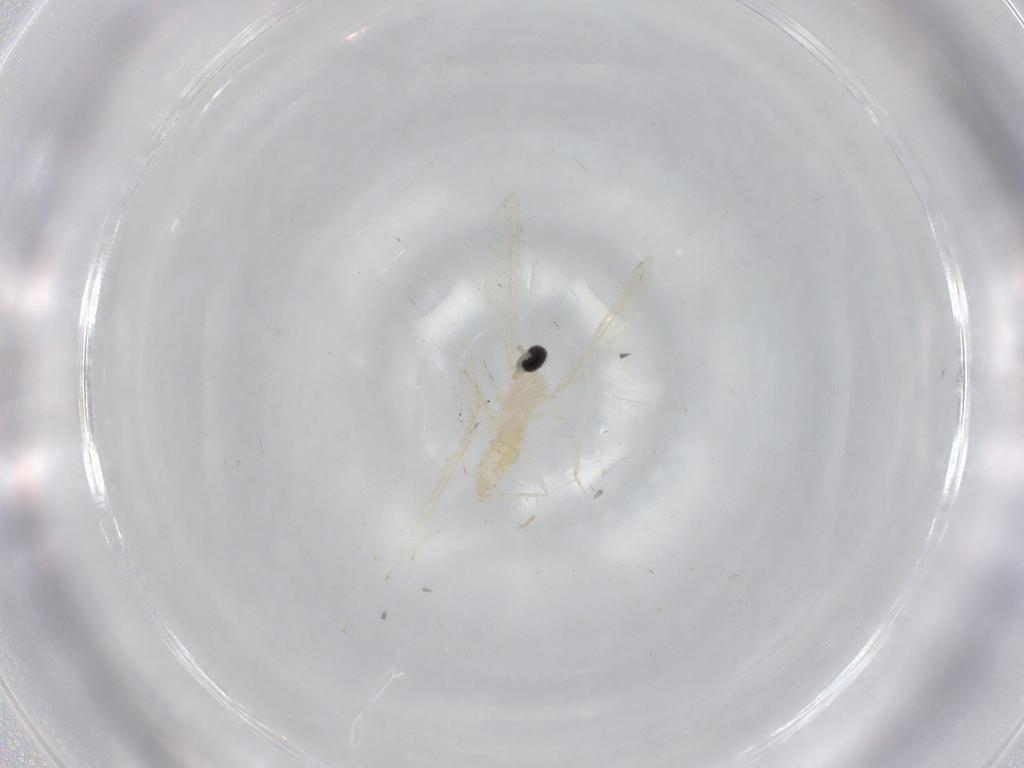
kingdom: Animalia
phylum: Arthropoda
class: Insecta
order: Diptera
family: Cecidomyiidae
